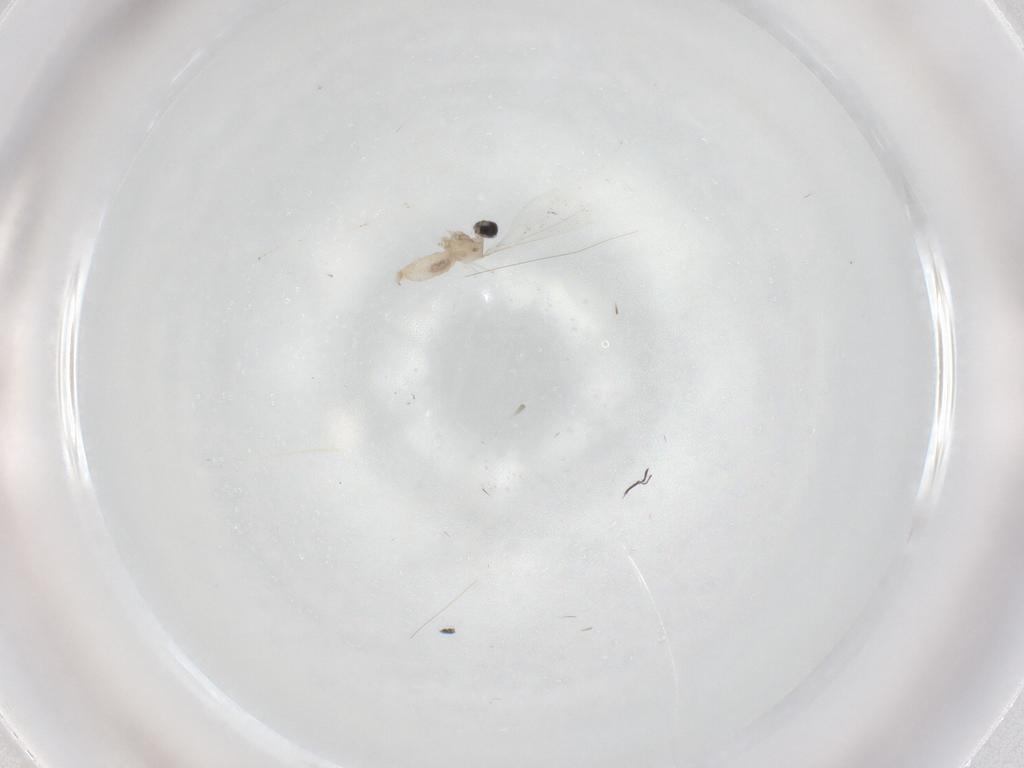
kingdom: Animalia
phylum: Arthropoda
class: Insecta
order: Diptera
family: Cecidomyiidae
